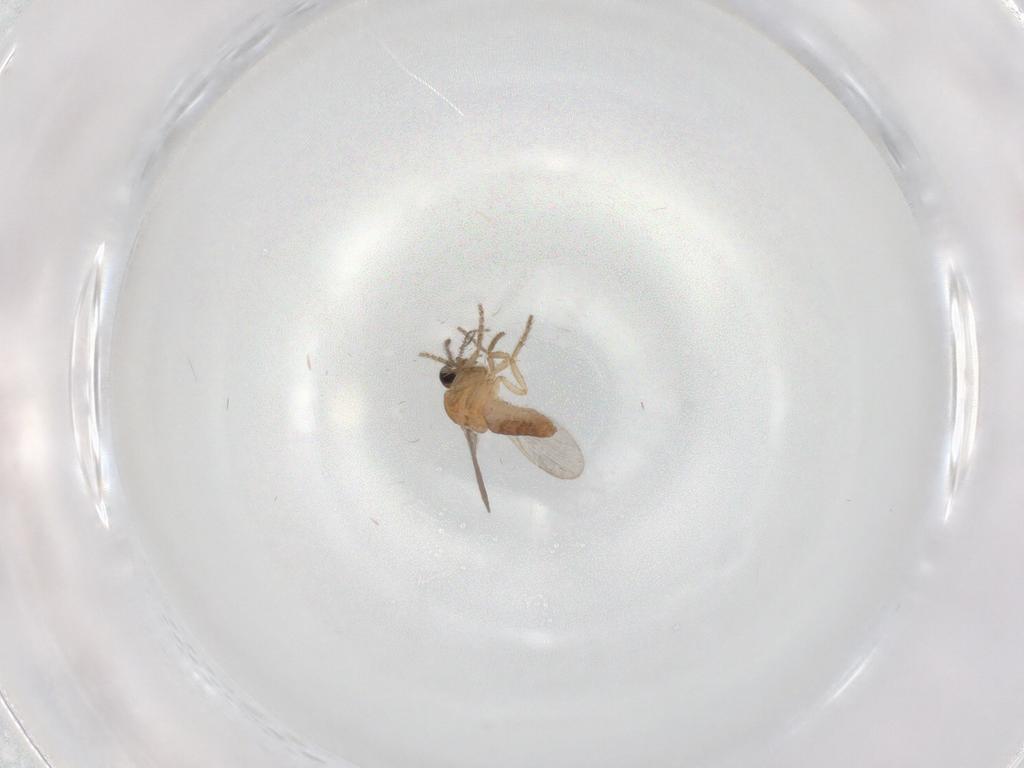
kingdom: Animalia
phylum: Arthropoda
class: Insecta
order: Diptera
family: Ceratopogonidae
